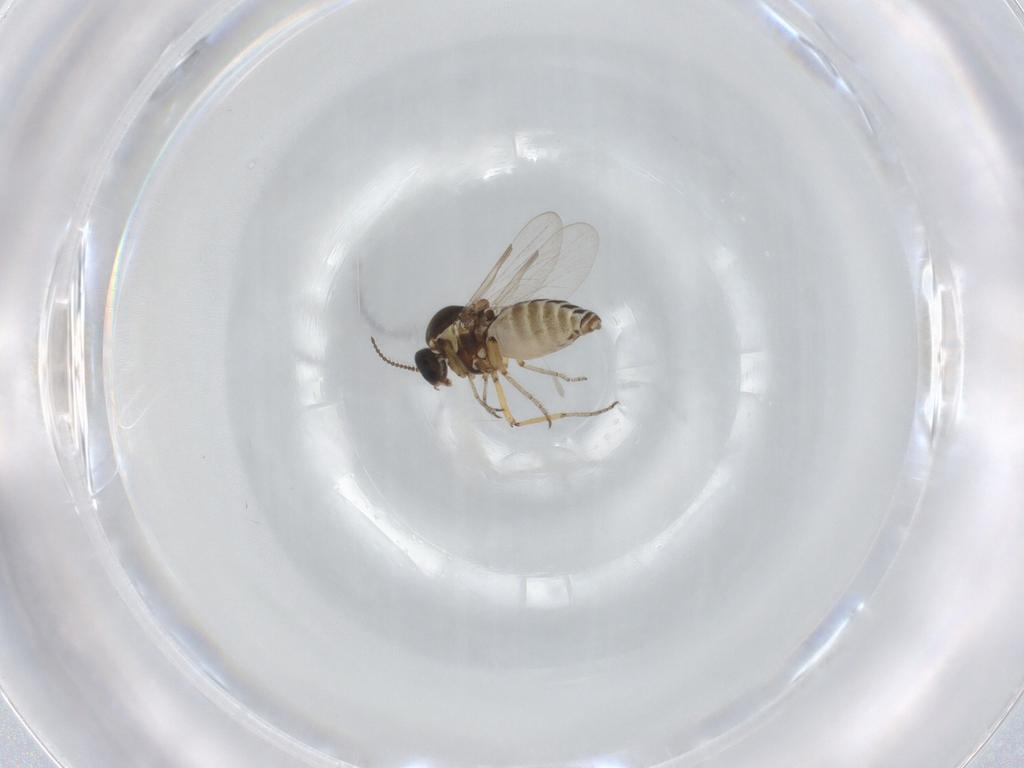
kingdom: Animalia
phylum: Arthropoda
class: Insecta
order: Diptera
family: Ceratopogonidae
